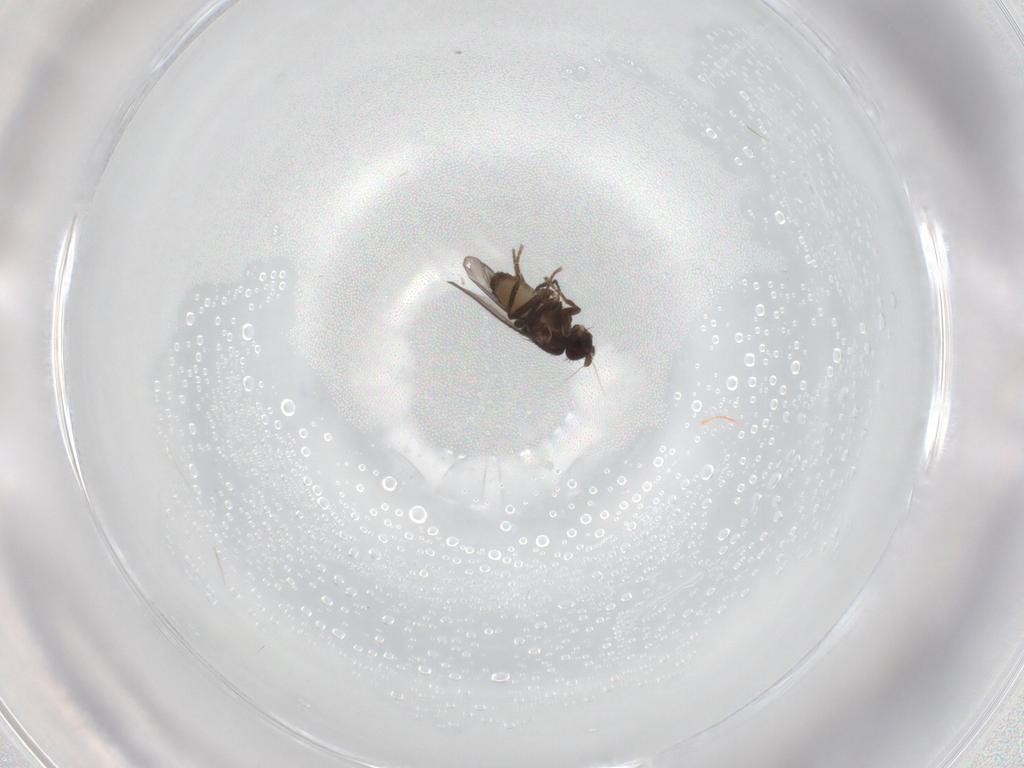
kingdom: Animalia
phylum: Arthropoda
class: Insecta
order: Diptera
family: Sphaeroceridae
